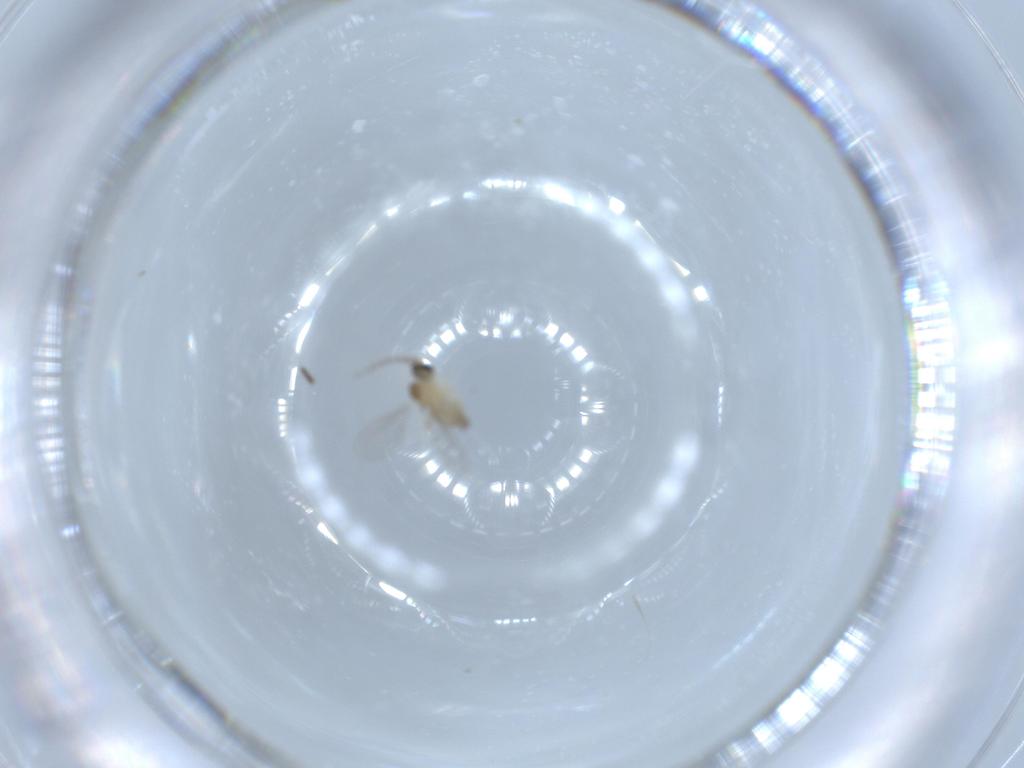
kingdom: Animalia
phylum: Arthropoda
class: Insecta
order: Diptera
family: Cecidomyiidae
